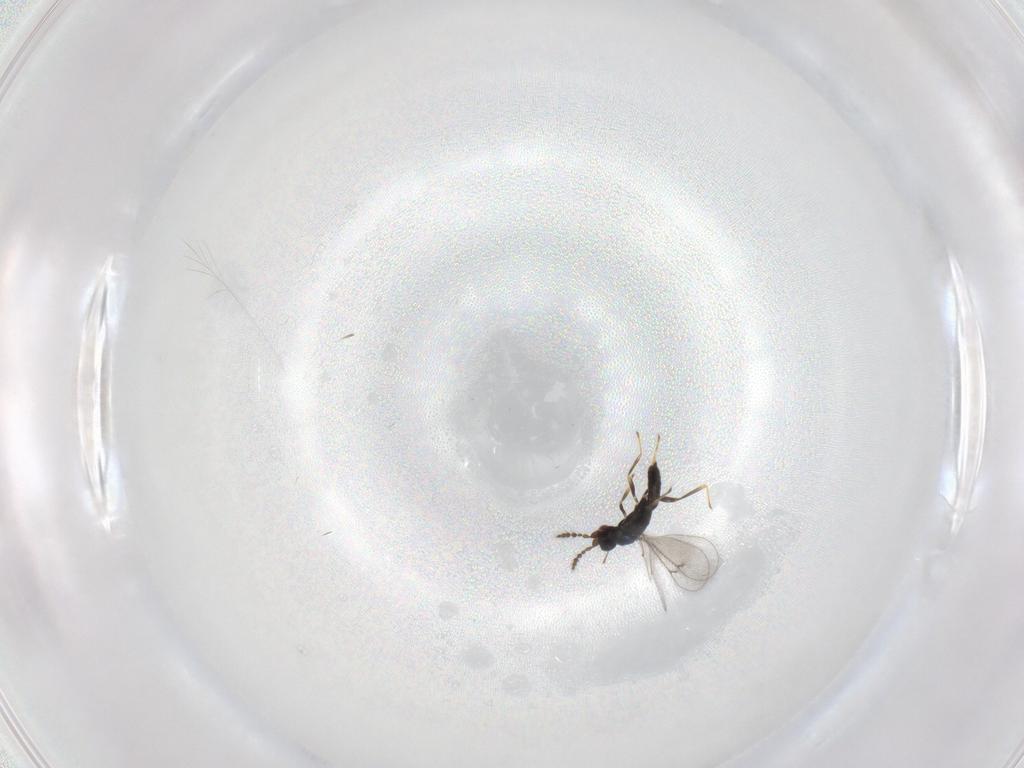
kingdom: Animalia
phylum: Arthropoda
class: Insecta
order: Hymenoptera
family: Eulophidae
